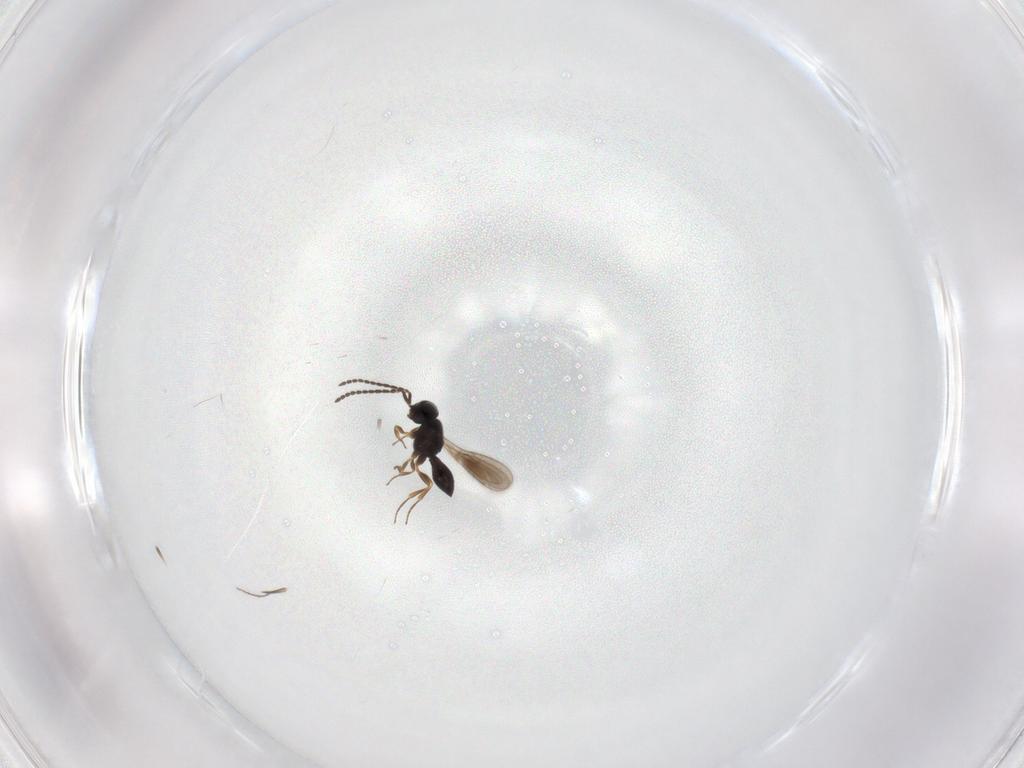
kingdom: Animalia
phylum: Arthropoda
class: Insecta
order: Hymenoptera
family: Scelionidae
